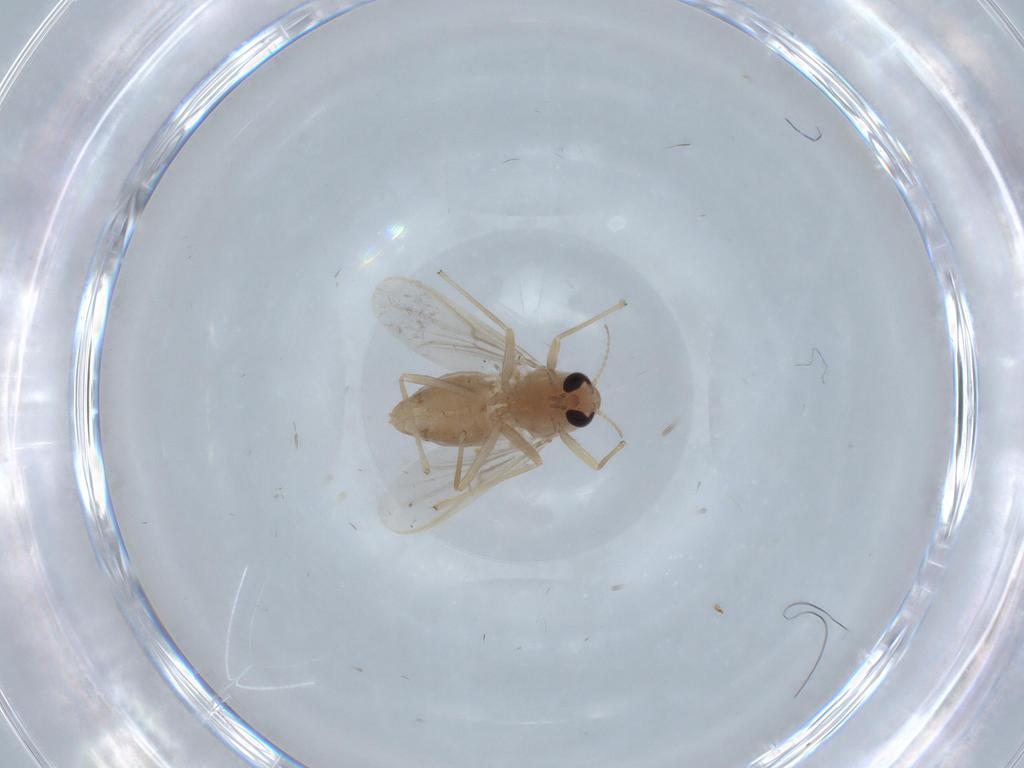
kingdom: Animalia
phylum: Arthropoda
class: Insecta
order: Diptera
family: Chironomidae
